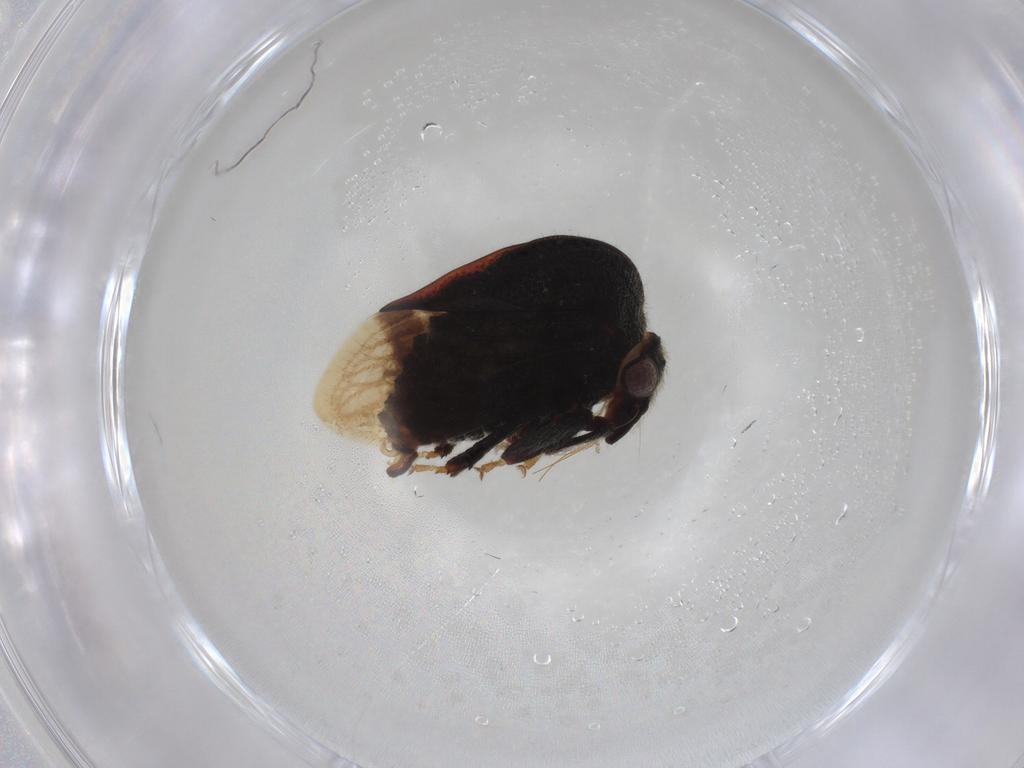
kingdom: Animalia
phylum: Arthropoda
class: Insecta
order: Hemiptera
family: Membracidae
